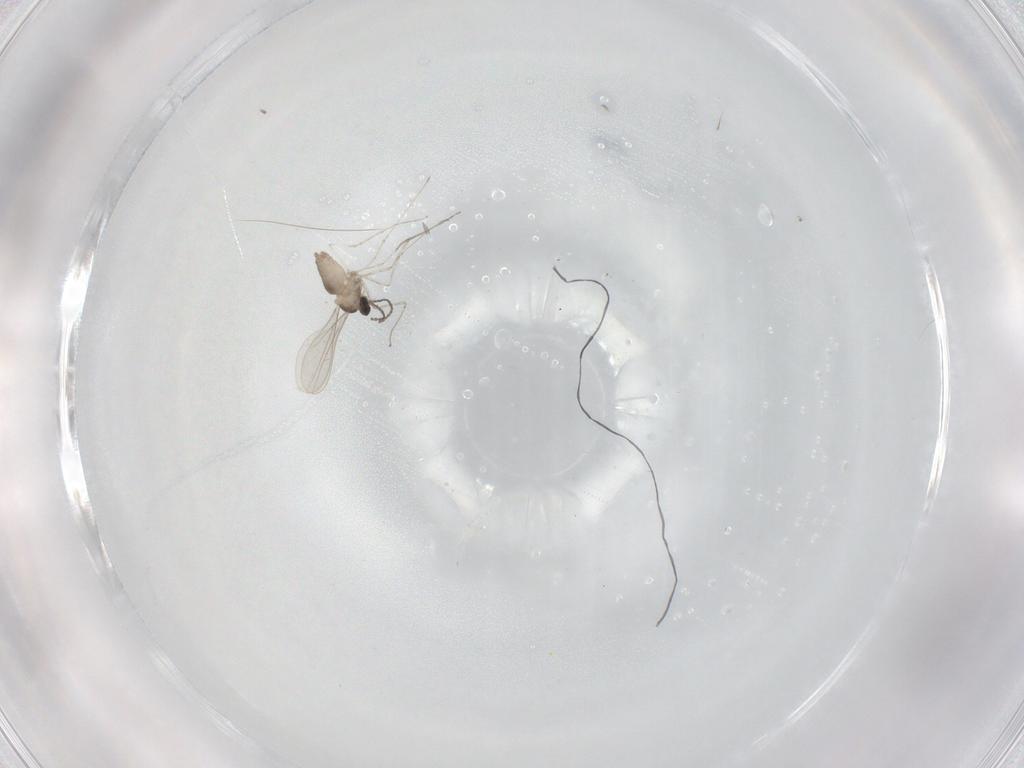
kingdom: Animalia
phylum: Arthropoda
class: Insecta
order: Diptera
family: Cecidomyiidae
